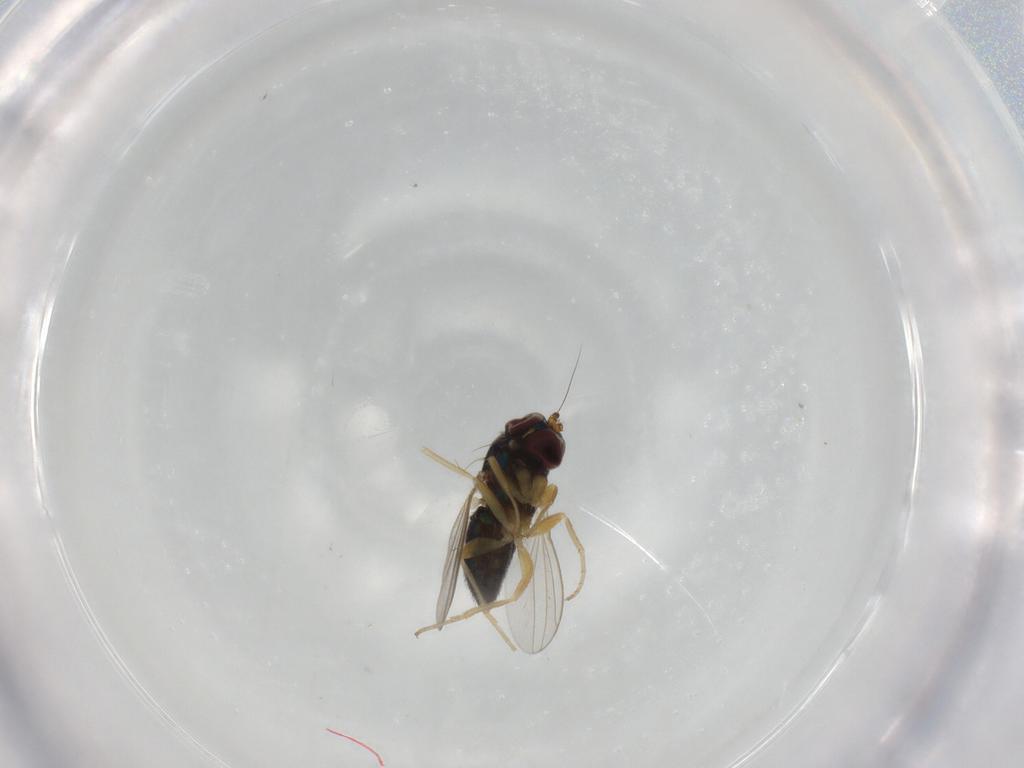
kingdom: Animalia
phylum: Arthropoda
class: Insecta
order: Diptera
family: Dolichopodidae
